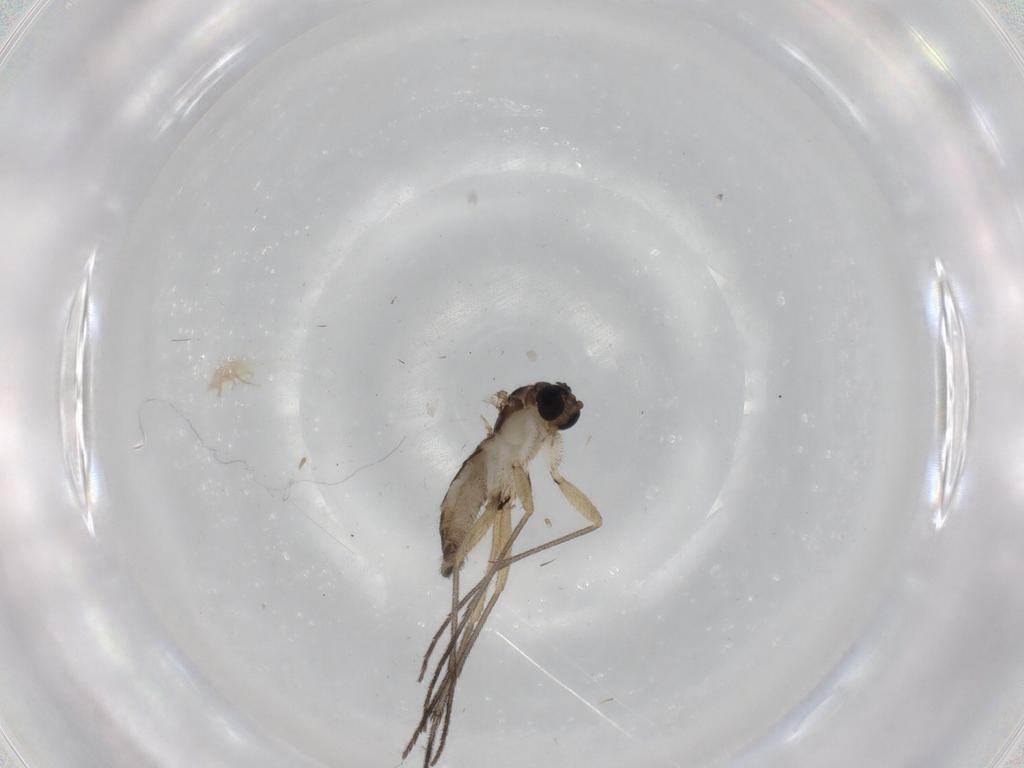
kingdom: Animalia
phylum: Arthropoda
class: Insecta
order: Diptera
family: Sciaridae
